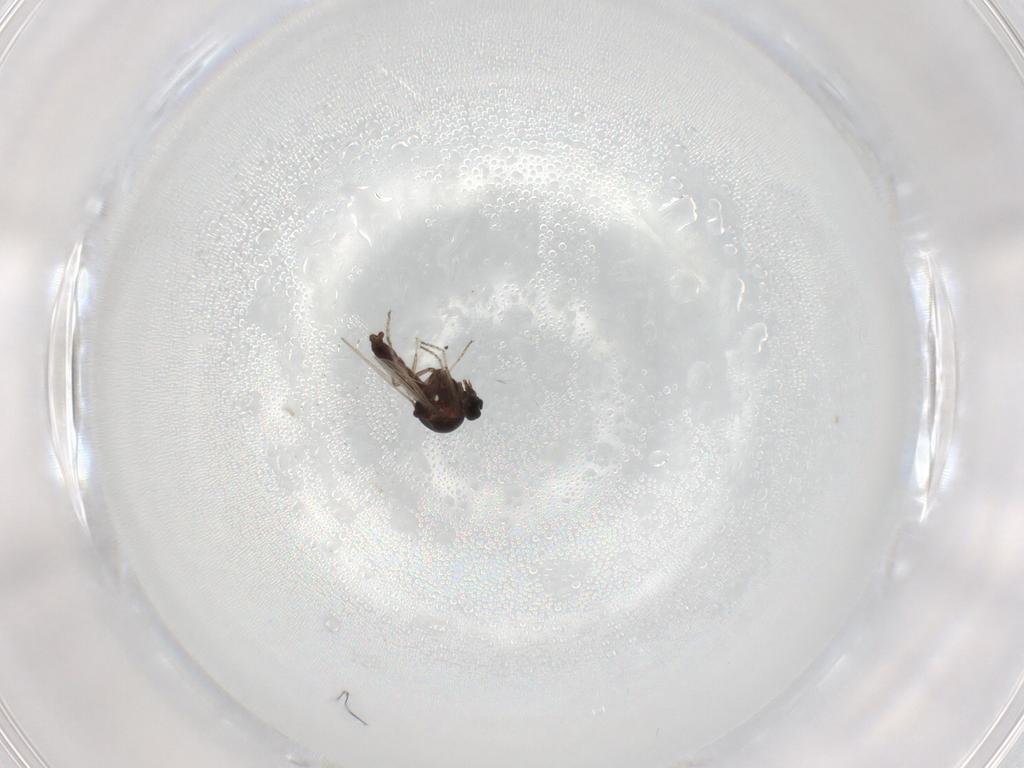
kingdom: Animalia
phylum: Arthropoda
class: Insecta
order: Diptera
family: Ceratopogonidae
